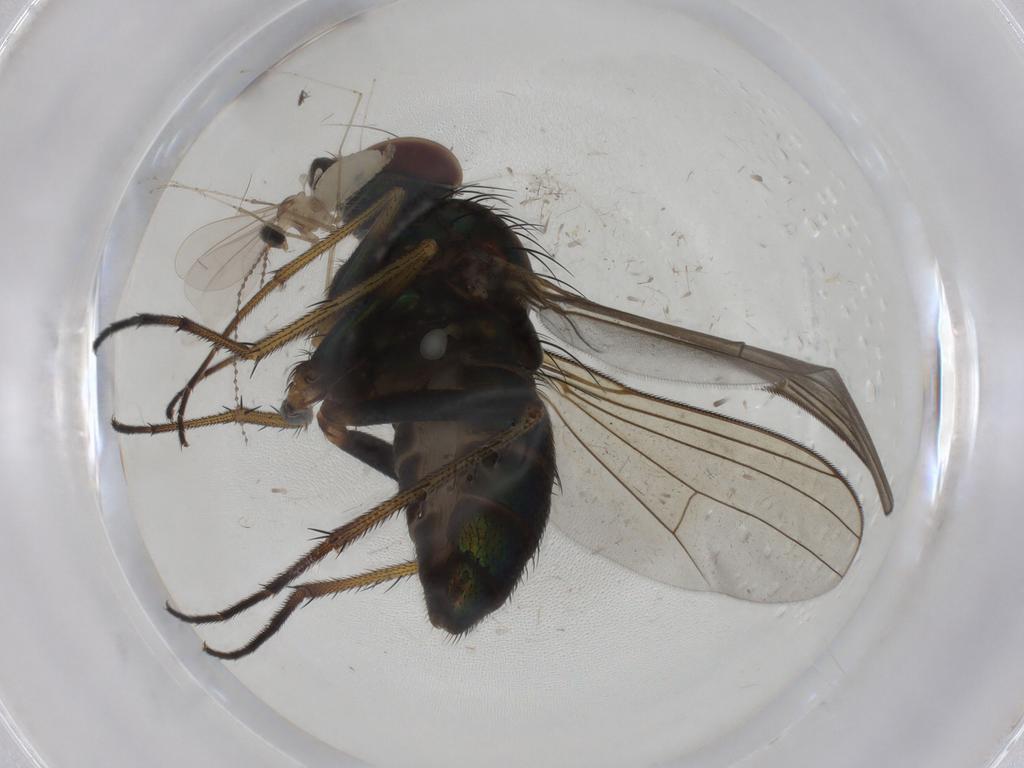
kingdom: Animalia
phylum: Arthropoda
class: Insecta
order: Diptera
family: Dolichopodidae
